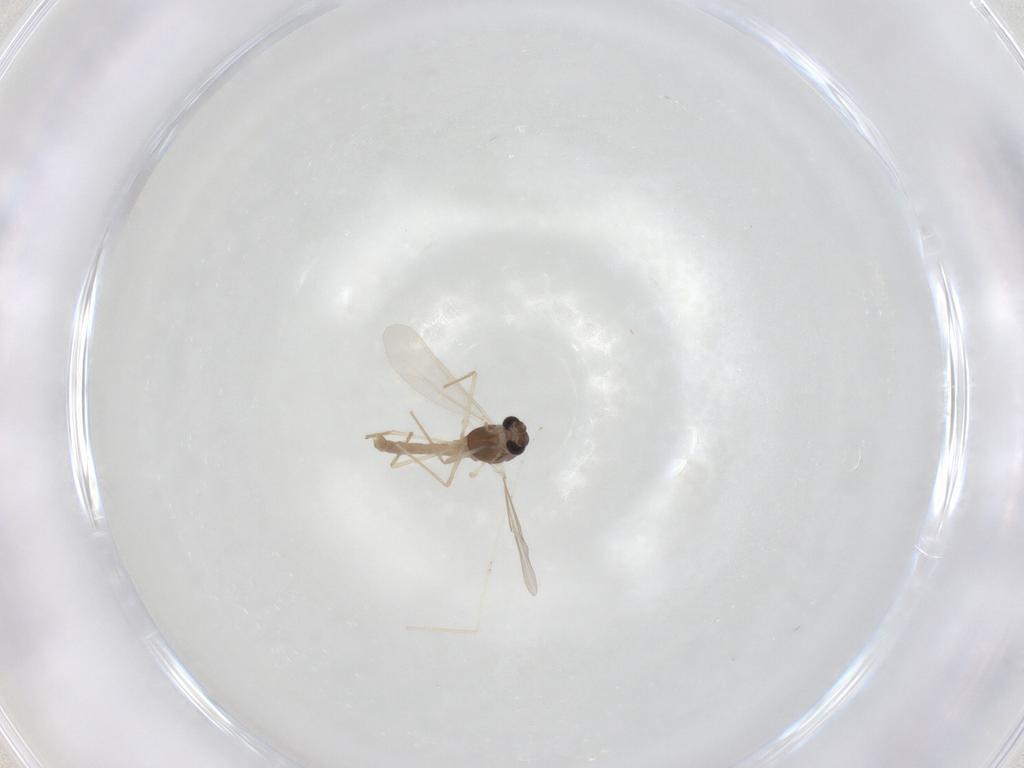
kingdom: Animalia
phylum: Arthropoda
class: Insecta
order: Diptera
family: Chironomidae
